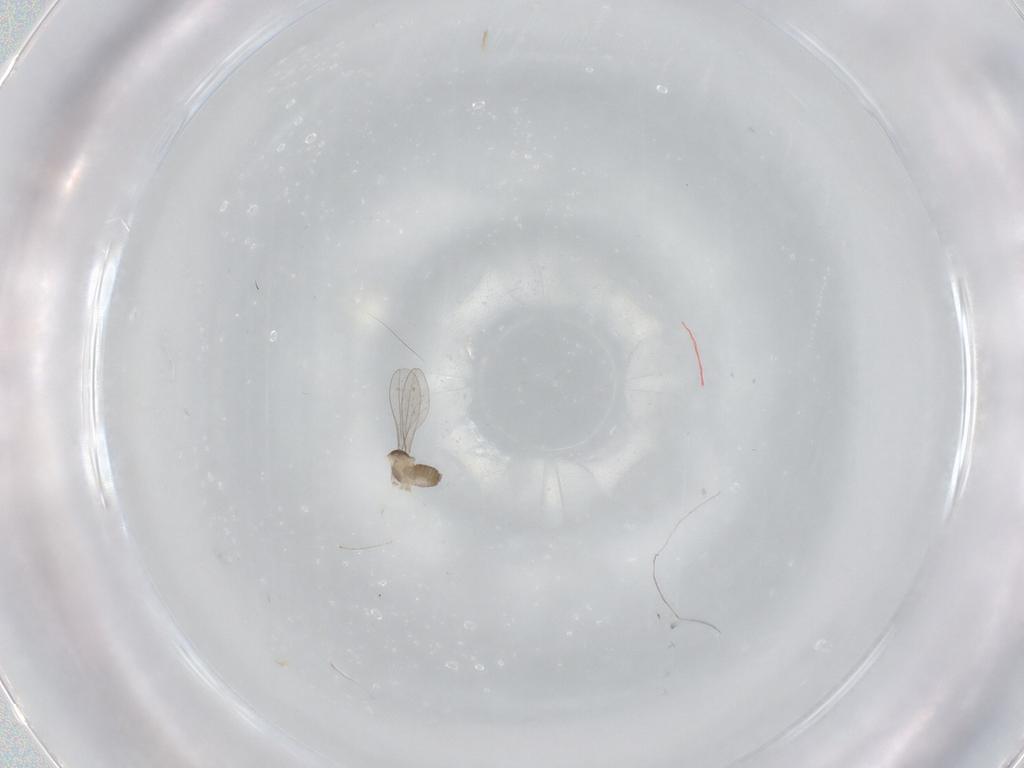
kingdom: Animalia
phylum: Arthropoda
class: Insecta
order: Diptera
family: Cecidomyiidae
